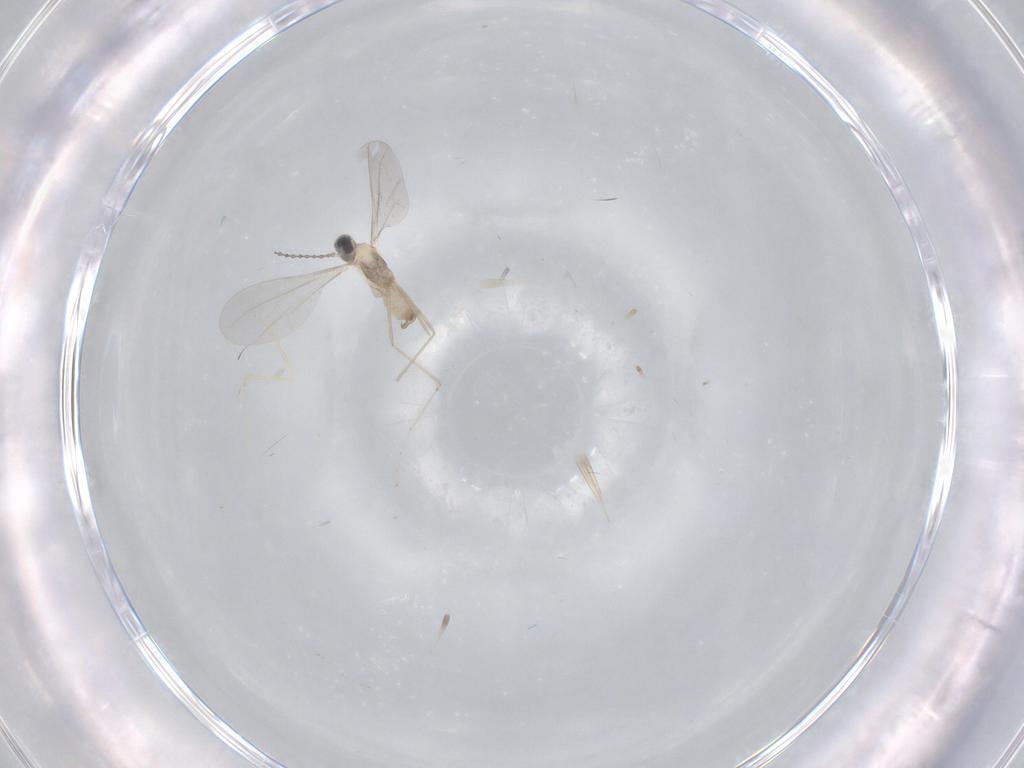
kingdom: Animalia
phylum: Arthropoda
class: Insecta
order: Diptera
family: Cecidomyiidae
